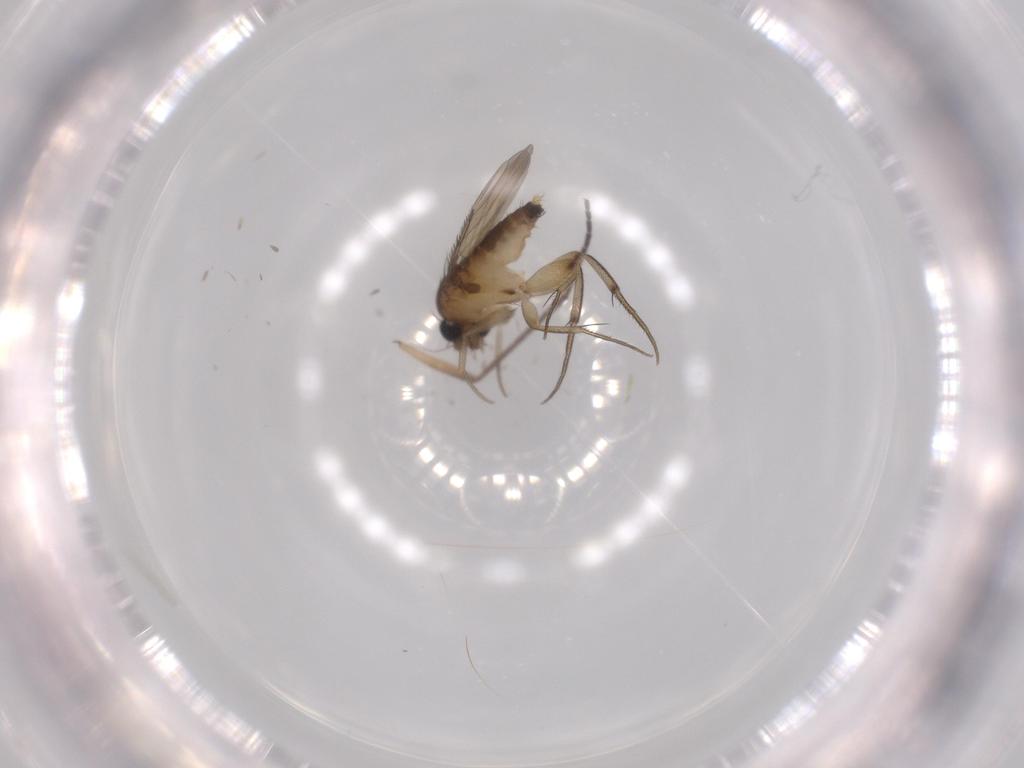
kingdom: Animalia
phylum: Arthropoda
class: Insecta
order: Diptera
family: Phoridae
